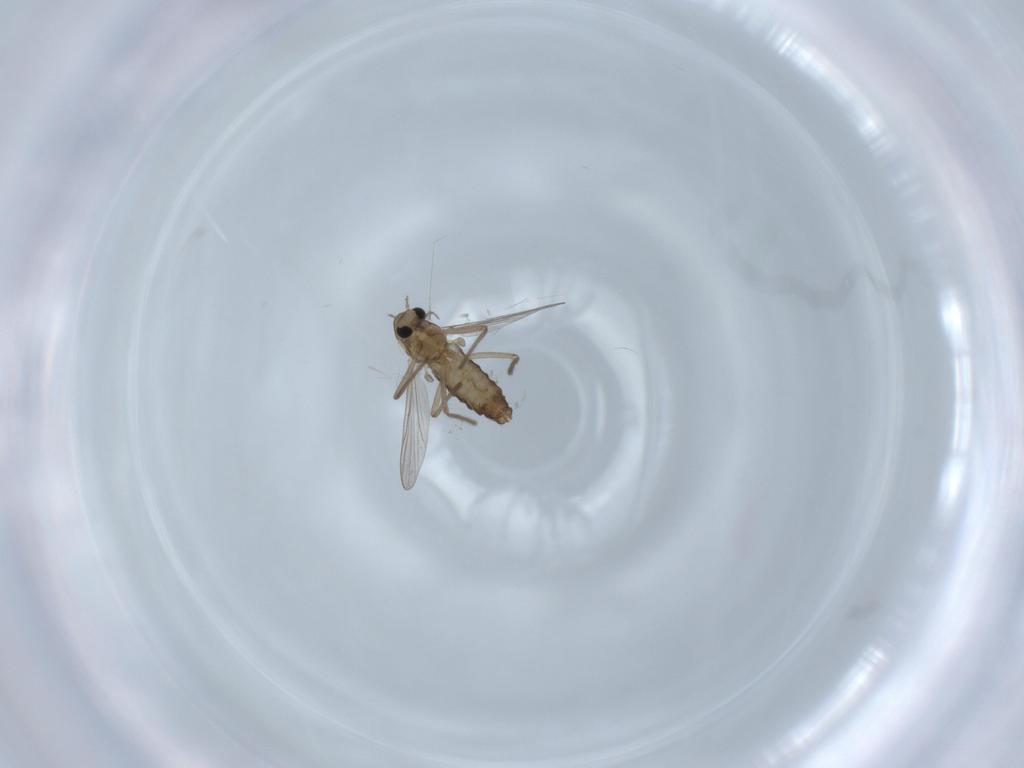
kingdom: Animalia
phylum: Arthropoda
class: Insecta
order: Diptera
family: Chironomidae
